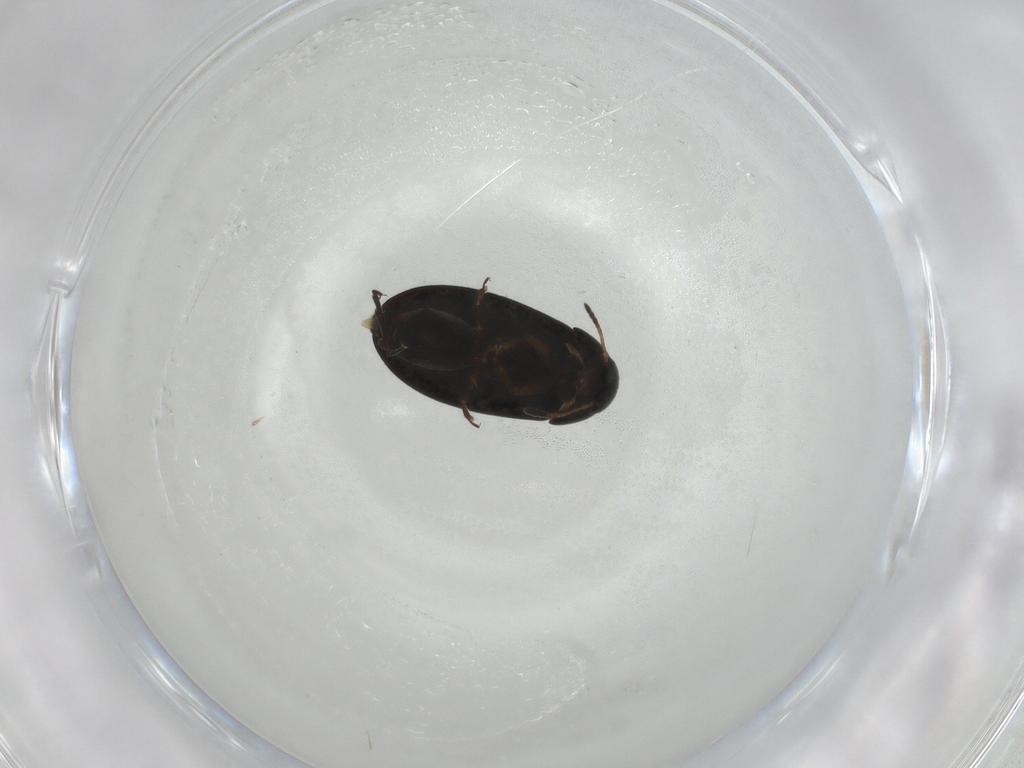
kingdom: Animalia
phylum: Arthropoda
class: Insecta
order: Coleoptera
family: Scraptiidae
